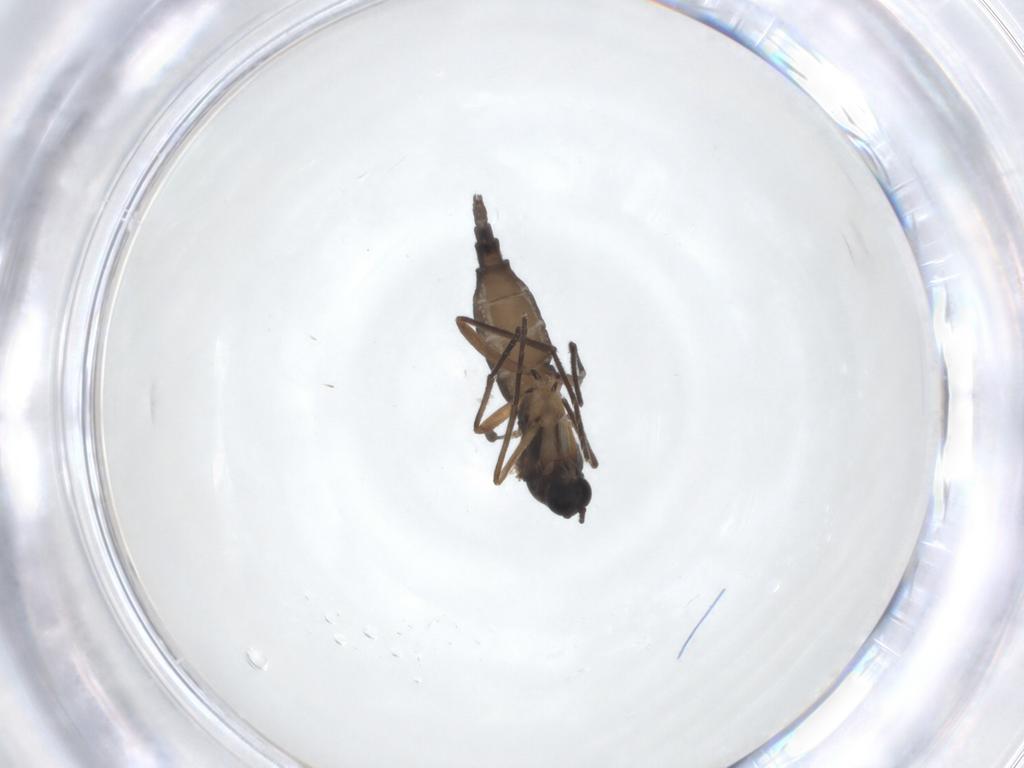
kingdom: Animalia
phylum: Arthropoda
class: Insecta
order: Diptera
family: Sciaridae
